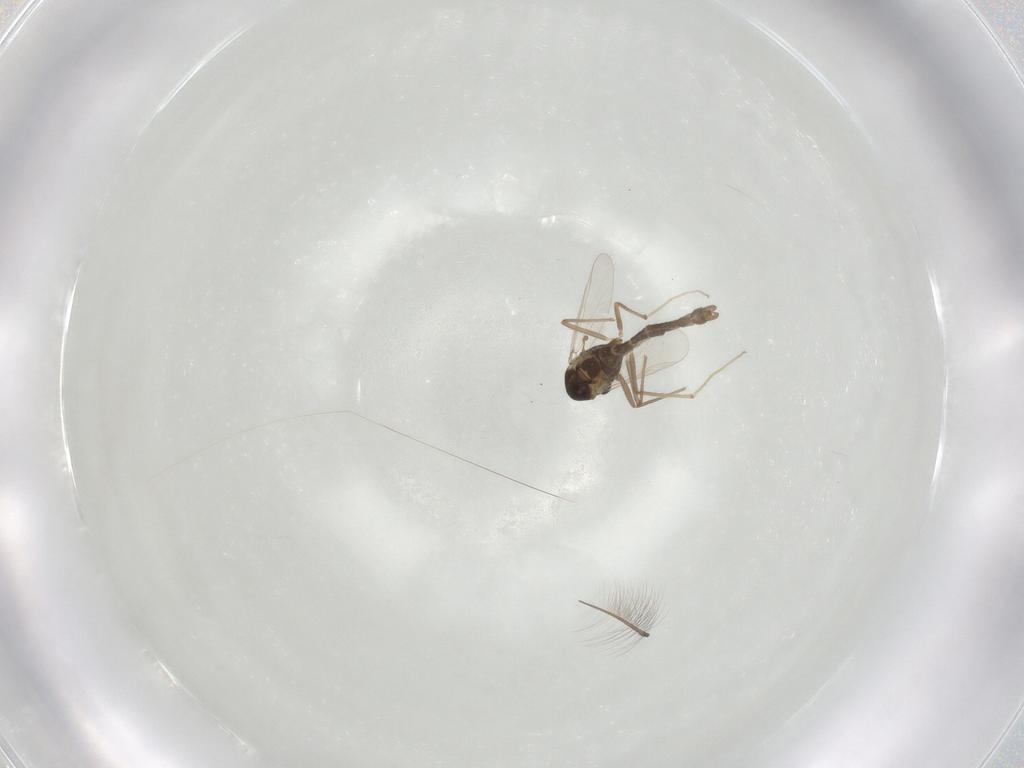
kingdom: Animalia
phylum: Arthropoda
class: Insecta
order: Diptera
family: Chironomidae
